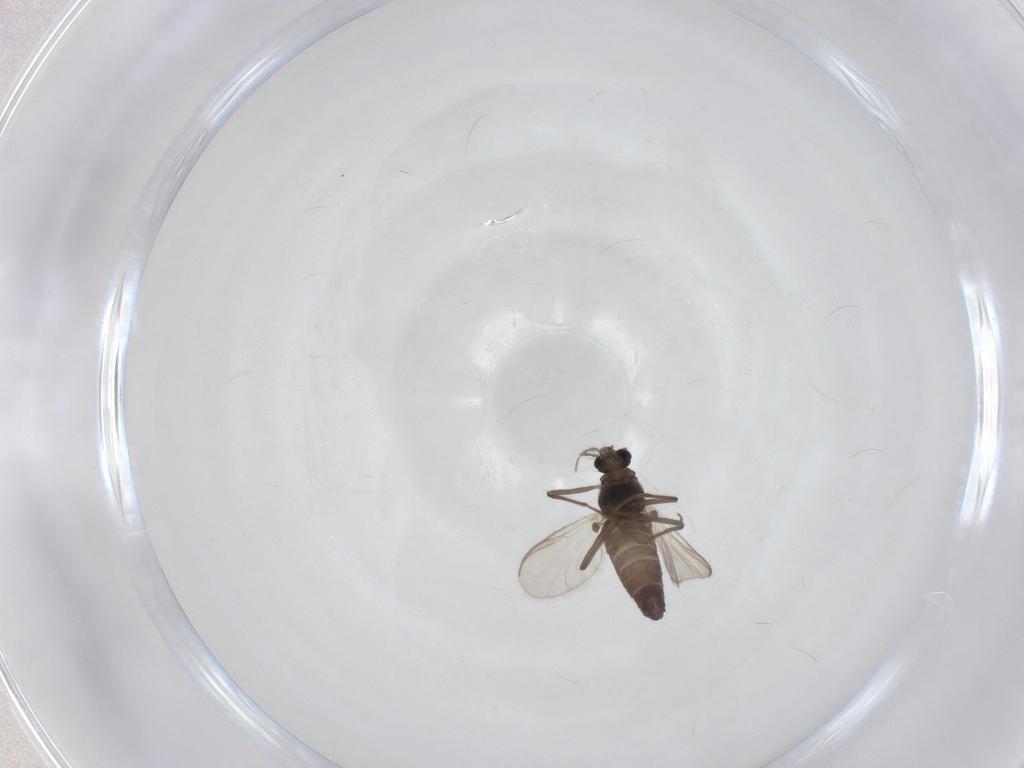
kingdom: Animalia
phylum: Arthropoda
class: Insecta
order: Diptera
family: Chironomidae
